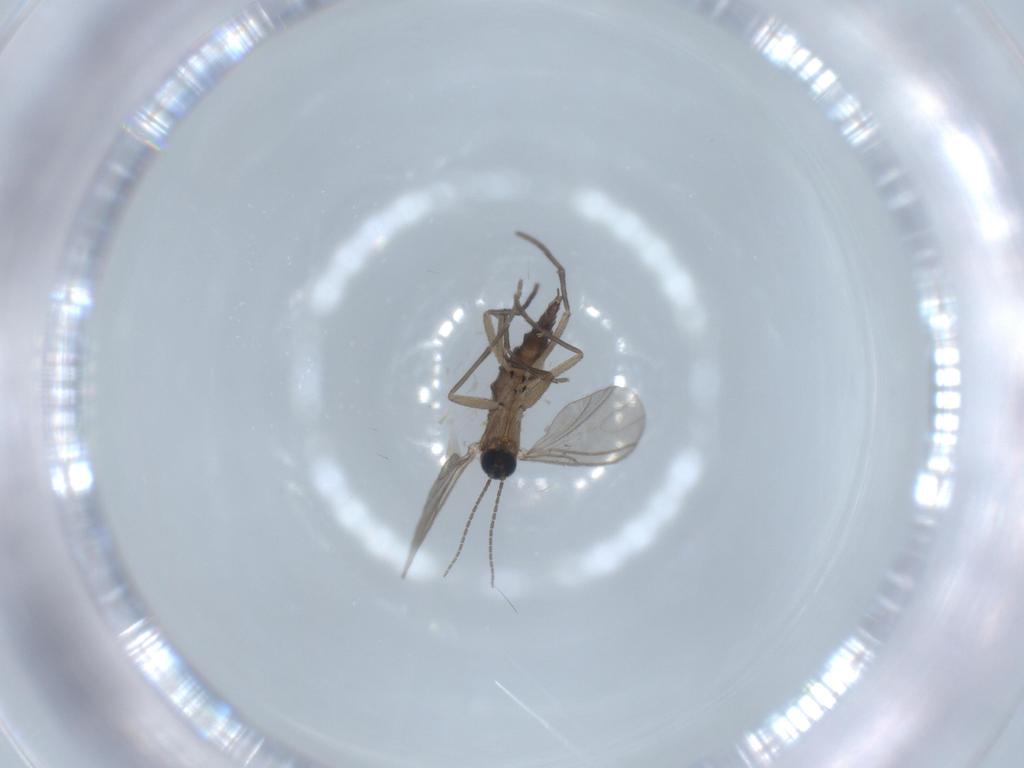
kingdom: Animalia
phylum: Arthropoda
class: Insecta
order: Diptera
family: Sciaridae
